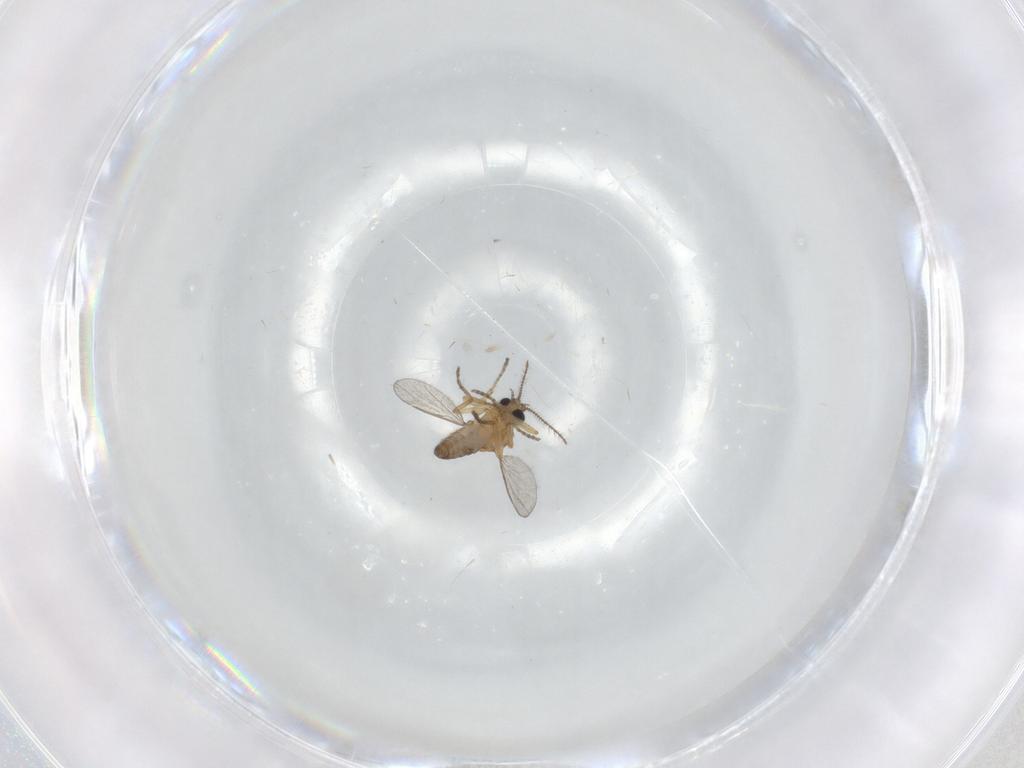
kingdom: Animalia
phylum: Arthropoda
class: Insecta
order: Diptera
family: Ceratopogonidae
